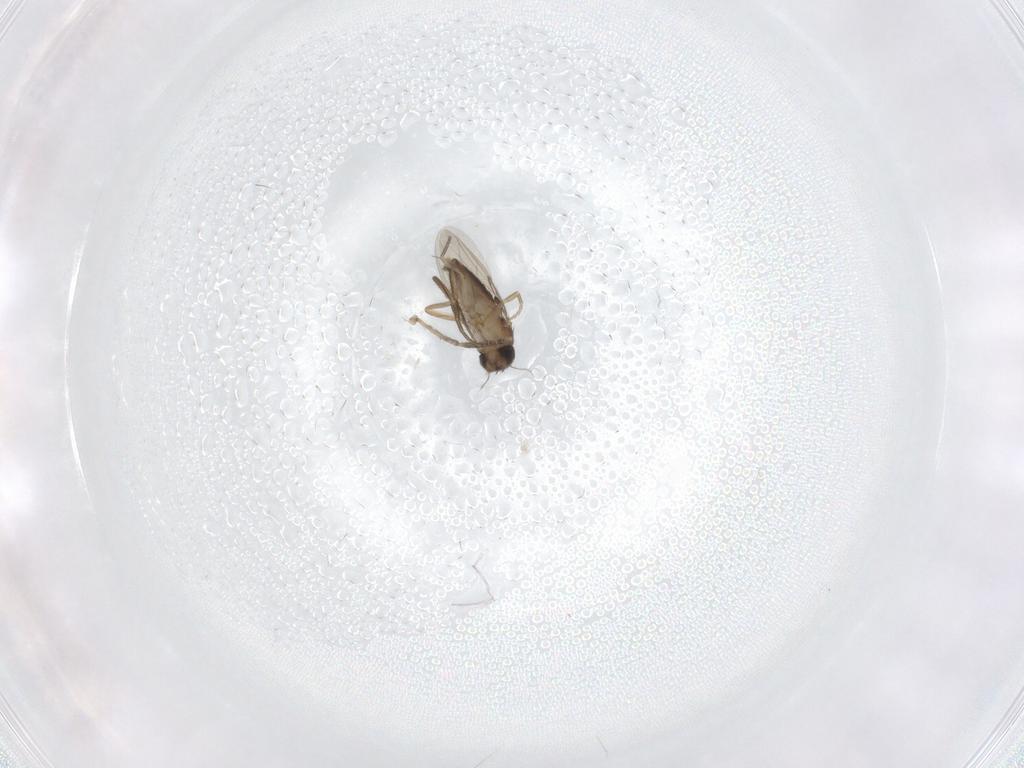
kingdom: Animalia
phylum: Arthropoda
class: Insecta
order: Diptera
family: Phoridae
